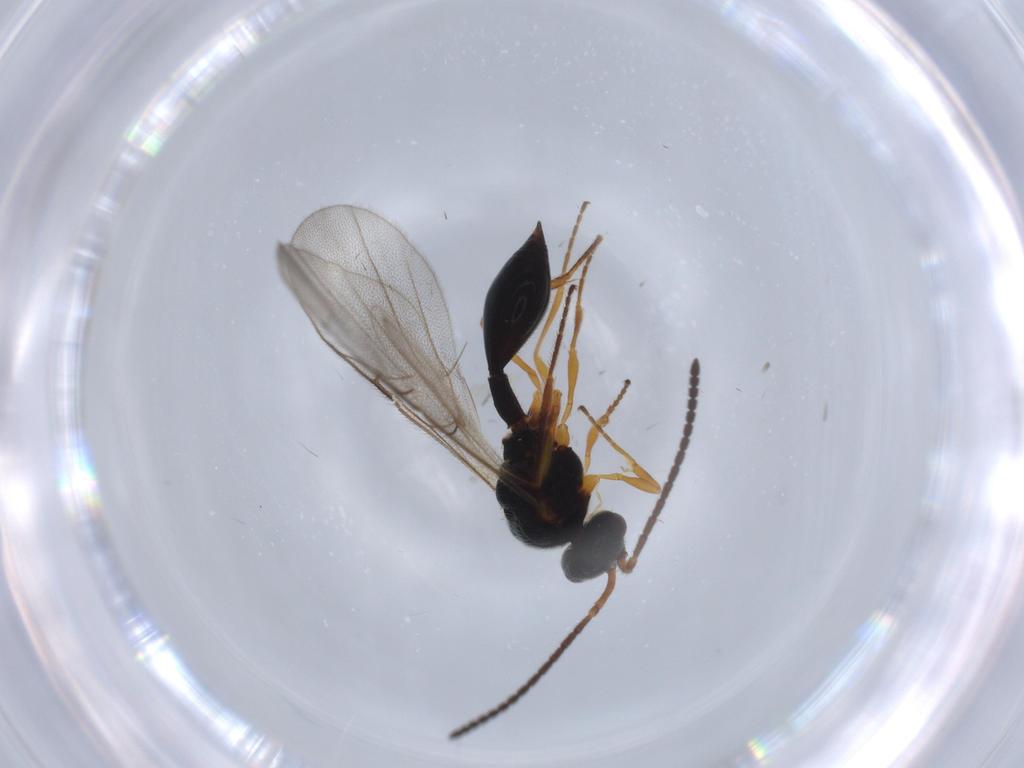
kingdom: Animalia
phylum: Arthropoda
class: Insecta
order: Hymenoptera
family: Diapriidae
